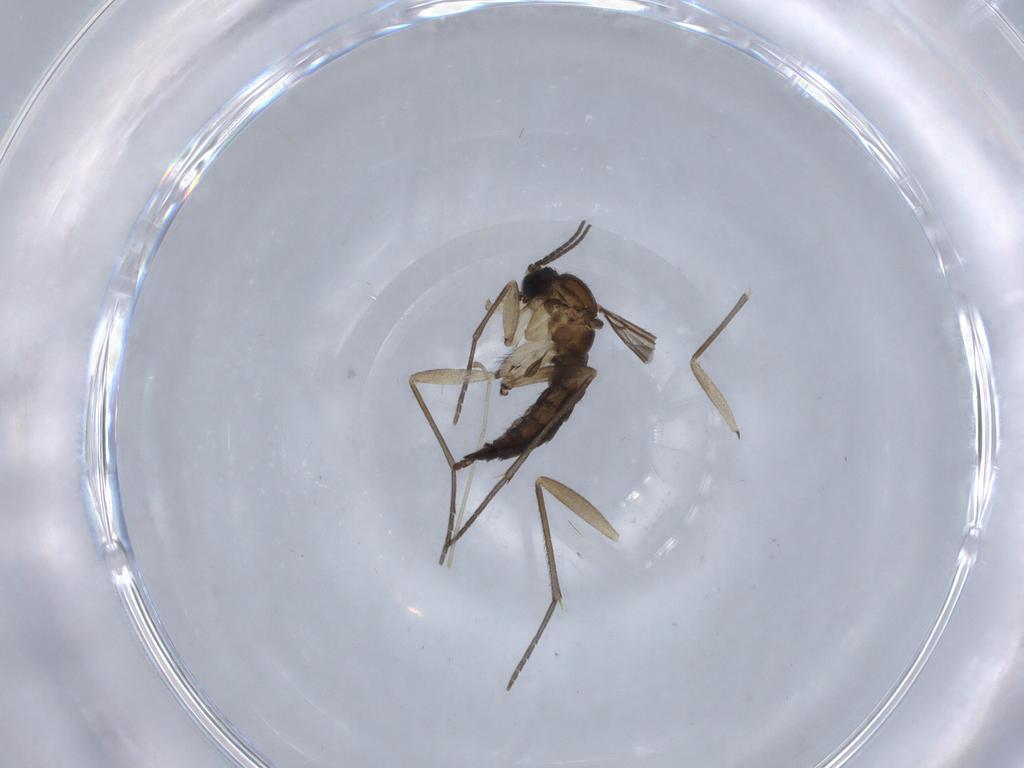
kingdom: Animalia
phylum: Arthropoda
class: Insecta
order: Diptera
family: Sciaridae
